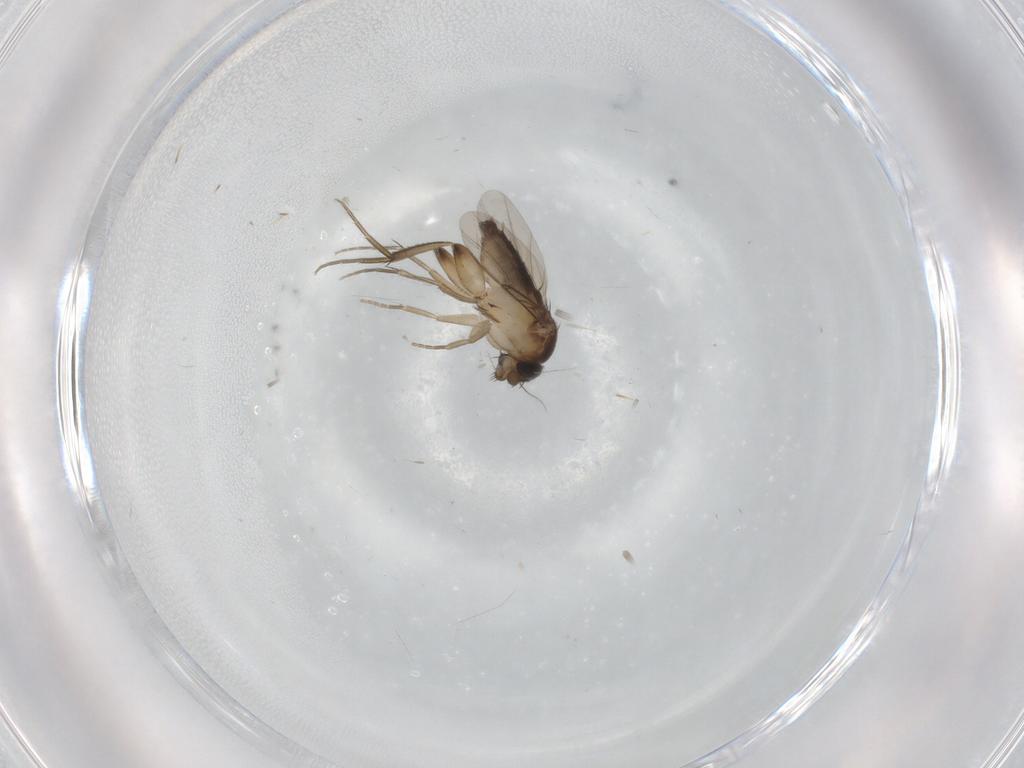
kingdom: Animalia
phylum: Arthropoda
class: Insecta
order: Diptera
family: Phoridae
